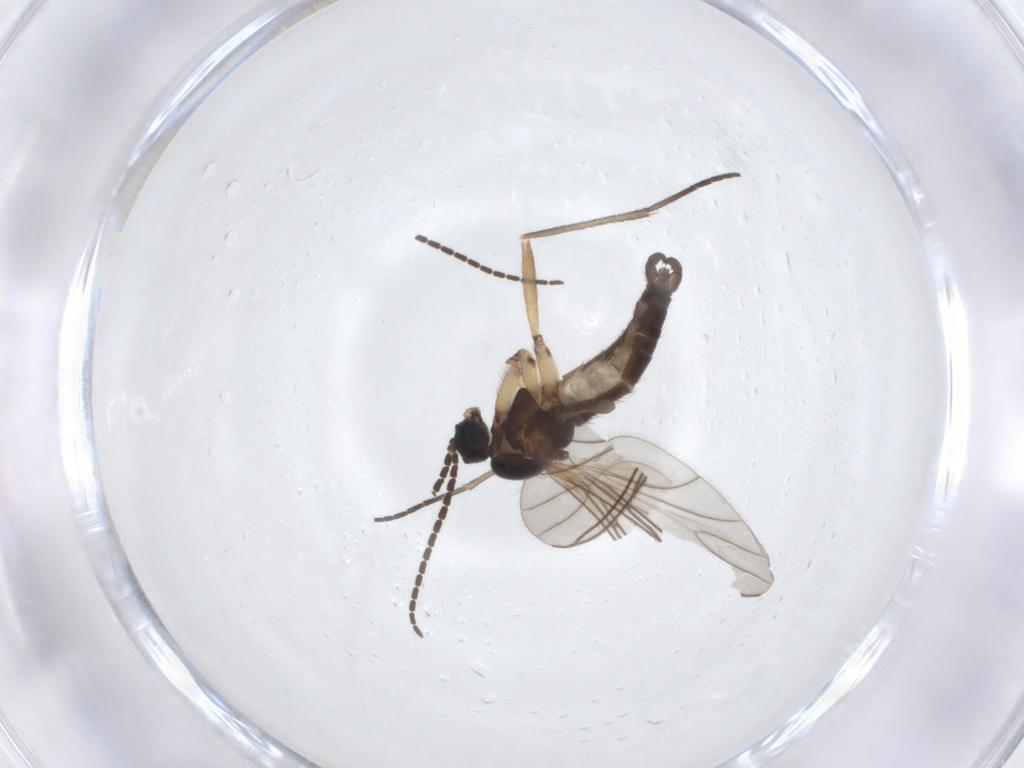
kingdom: Animalia
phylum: Arthropoda
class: Insecta
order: Diptera
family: Sciaridae
